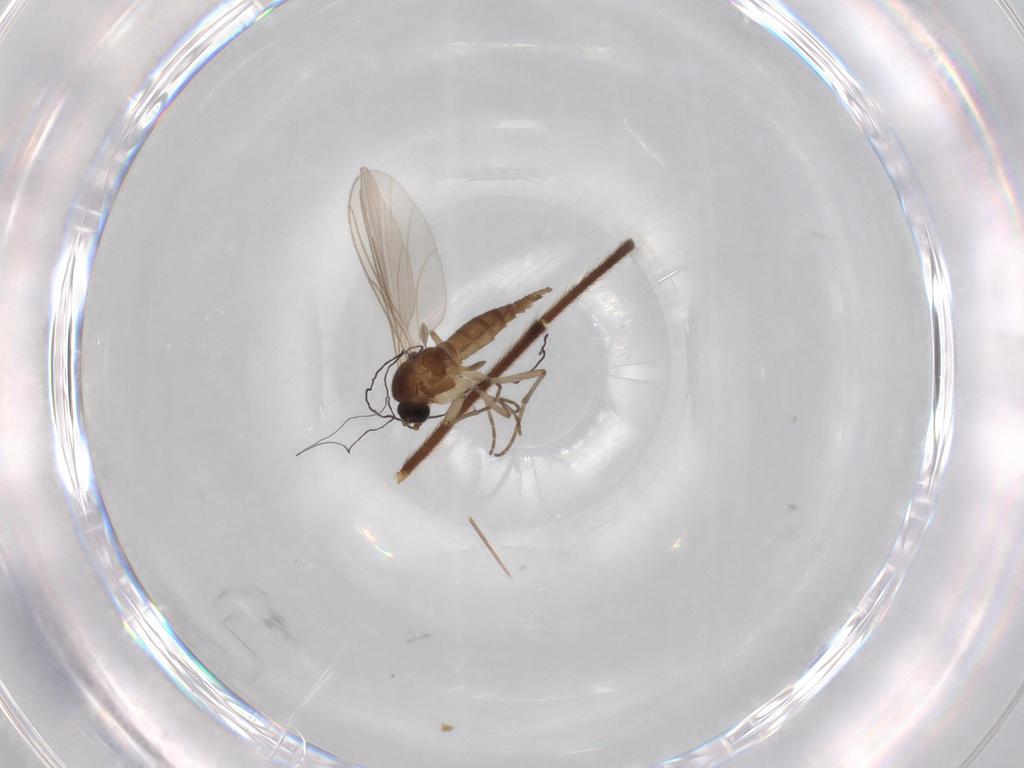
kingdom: Animalia
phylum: Arthropoda
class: Insecta
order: Diptera
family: Chironomidae
